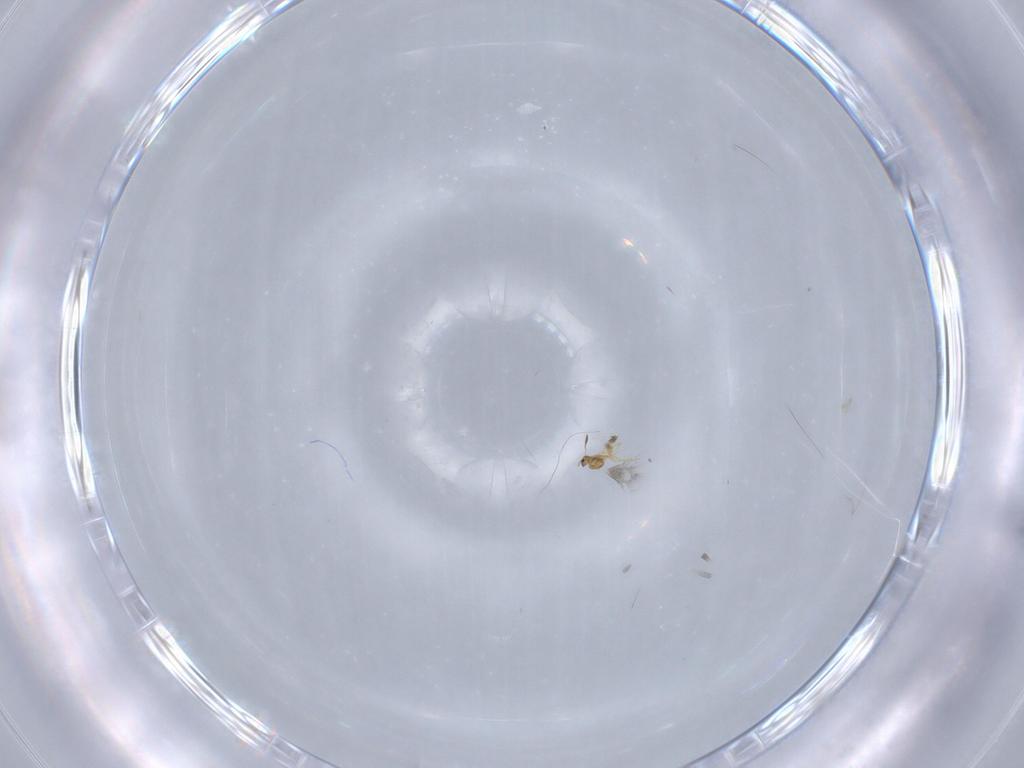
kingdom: Animalia
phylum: Arthropoda
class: Insecta
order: Hymenoptera
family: Mymarommatidae
